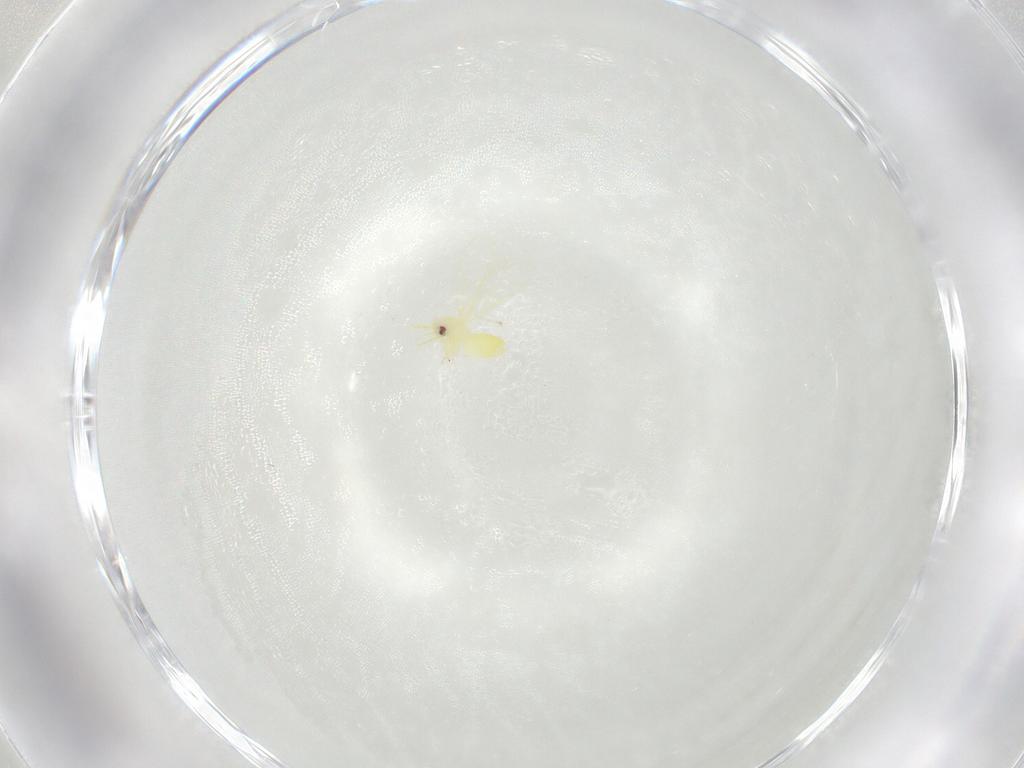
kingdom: Animalia
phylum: Arthropoda
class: Insecta
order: Hemiptera
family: Aleyrodidae
